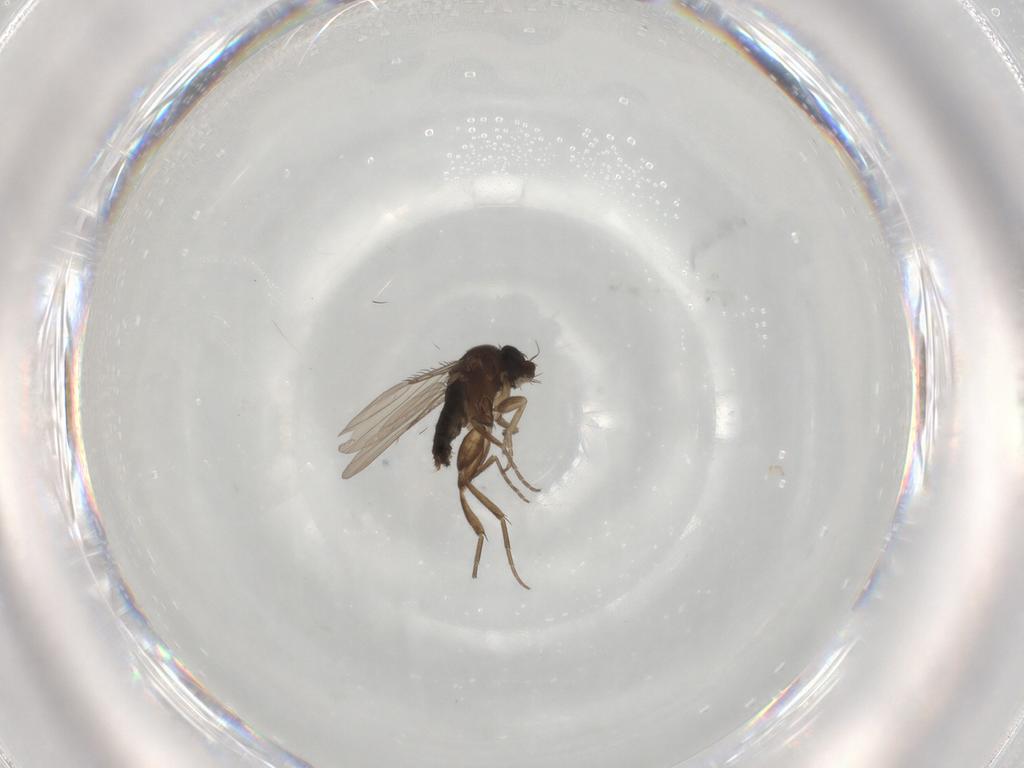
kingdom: Animalia
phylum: Arthropoda
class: Insecta
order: Diptera
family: Phoridae
